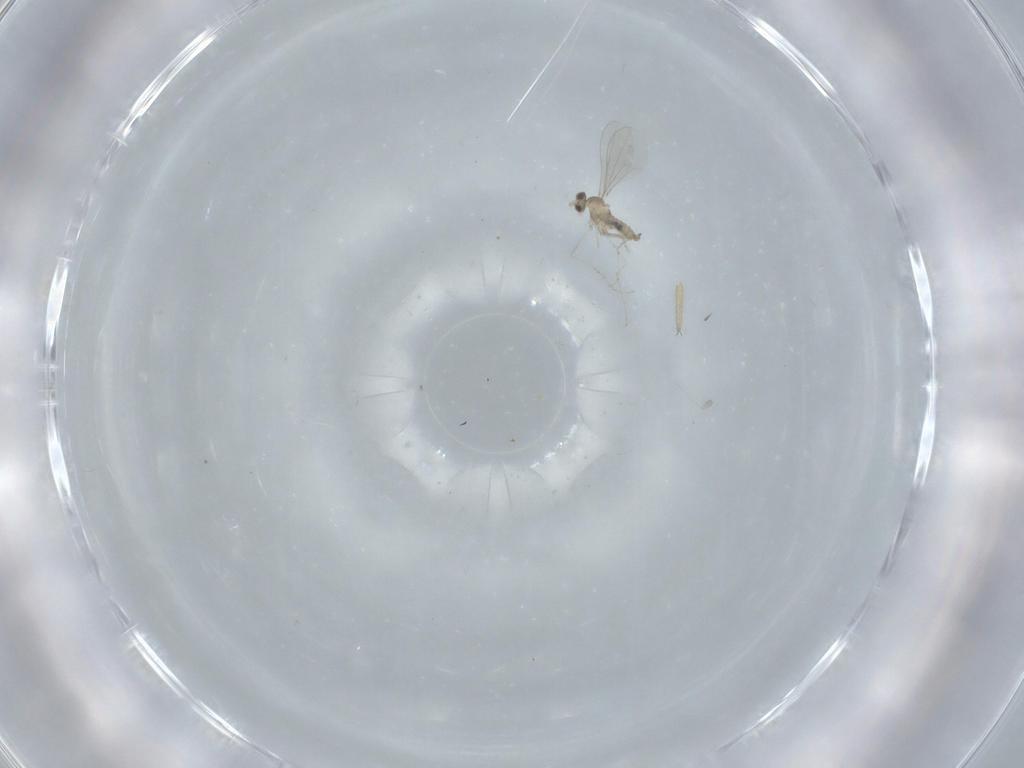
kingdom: Animalia
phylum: Arthropoda
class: Insecta
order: Diptera
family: Cecidomyiidae
